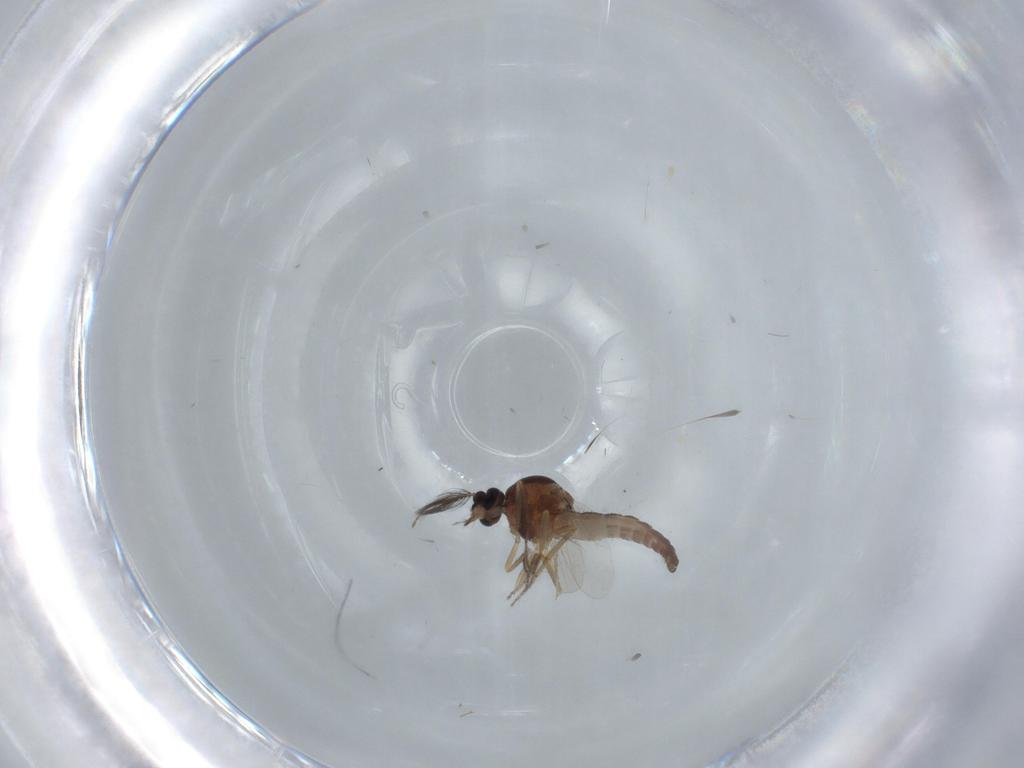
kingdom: Animalia
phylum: Arthropoda
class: Insecta
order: Diptera
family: Ceratopogonidae
